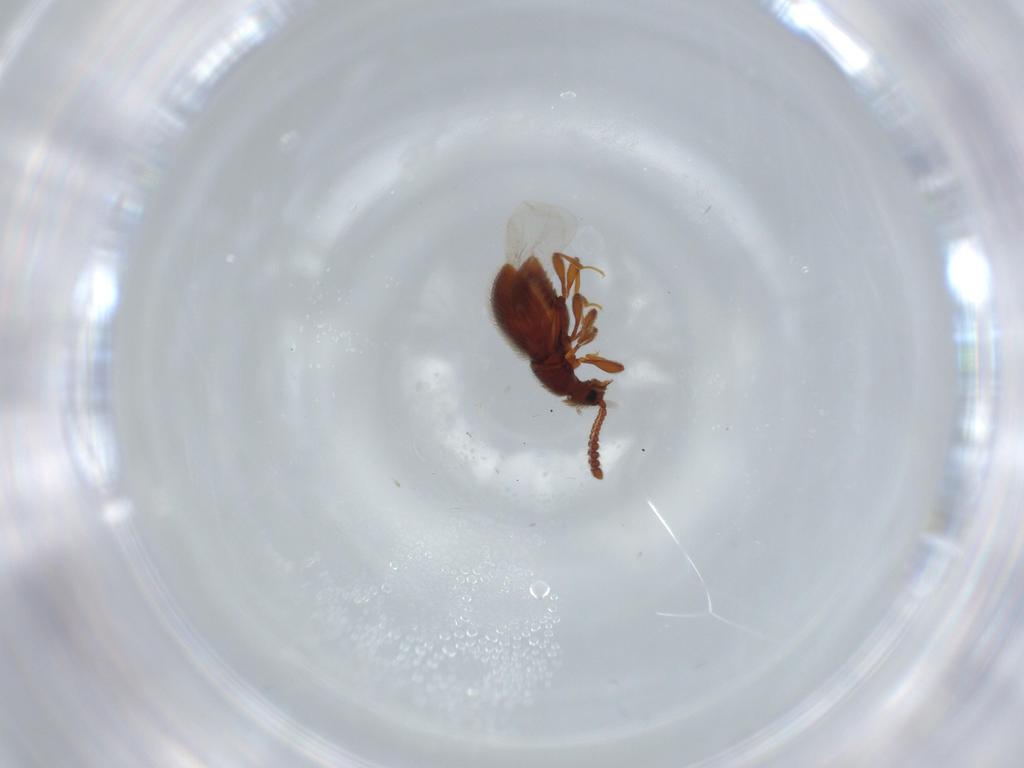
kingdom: Animalia
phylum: Arthropoda
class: Insecta
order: Coleoptera
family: Staphylinidae
